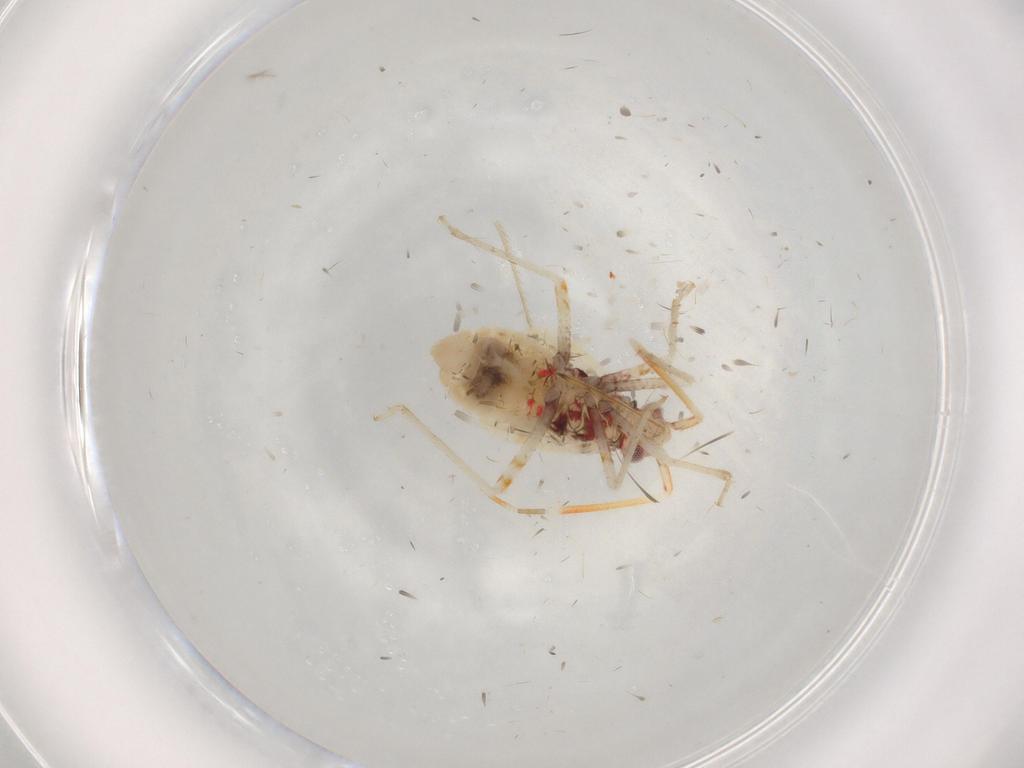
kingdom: Animalia
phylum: Arthropoda
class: Insecta
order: Hemiptera
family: Miridae
